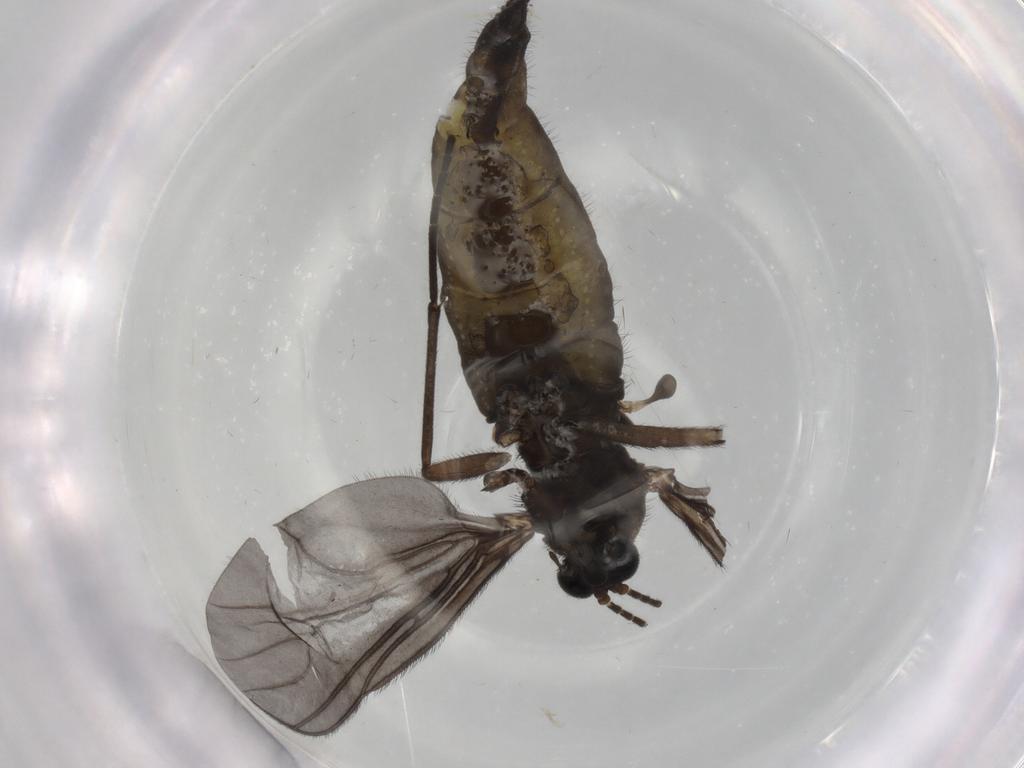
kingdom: Animalia
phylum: Arthropoda
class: Insecta
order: Diptera
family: Sciaridae
